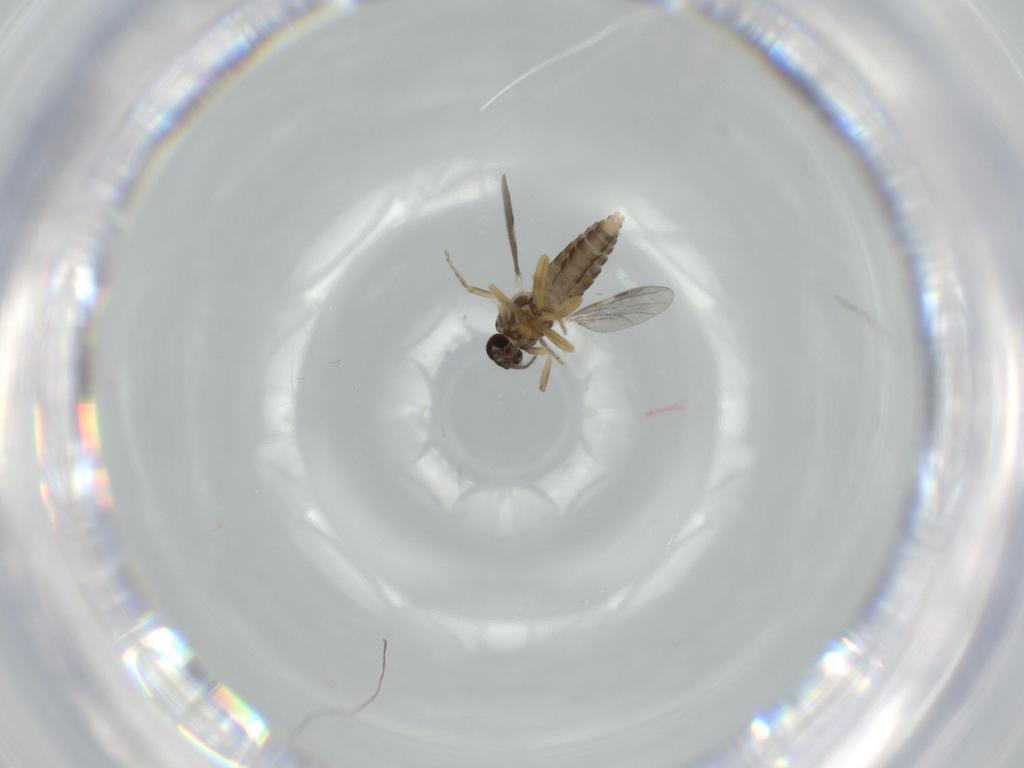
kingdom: Animalia
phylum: Arthropoda
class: Insecta
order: Diptera
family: Ceratopogonidae
